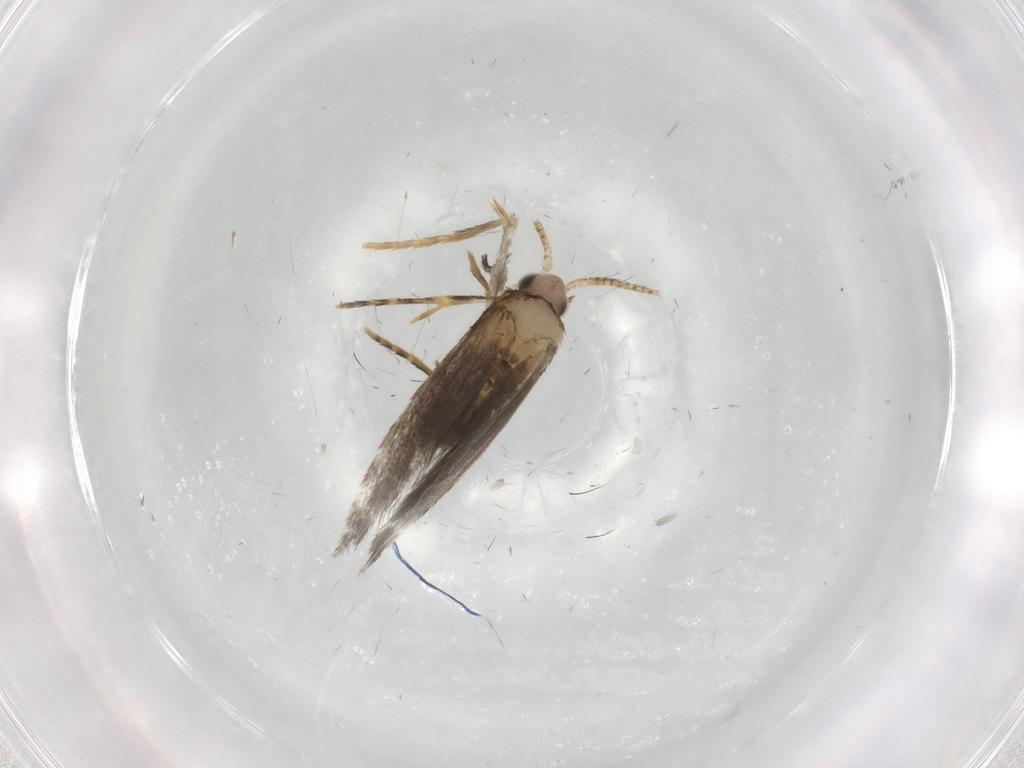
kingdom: Animalia
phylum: Arthropoda
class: Insecta
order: Lepidoptera
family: Tineidae
